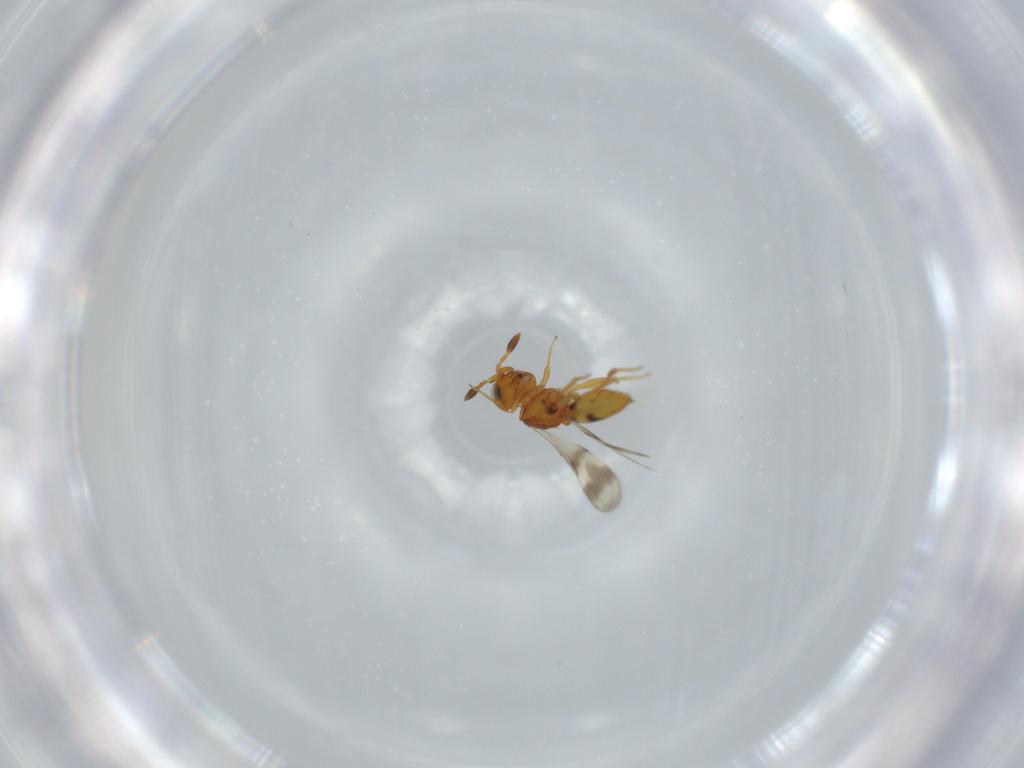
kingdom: Animalia
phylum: Arthropoda
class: Insecta
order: Hymenoptera
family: Scelionidae
